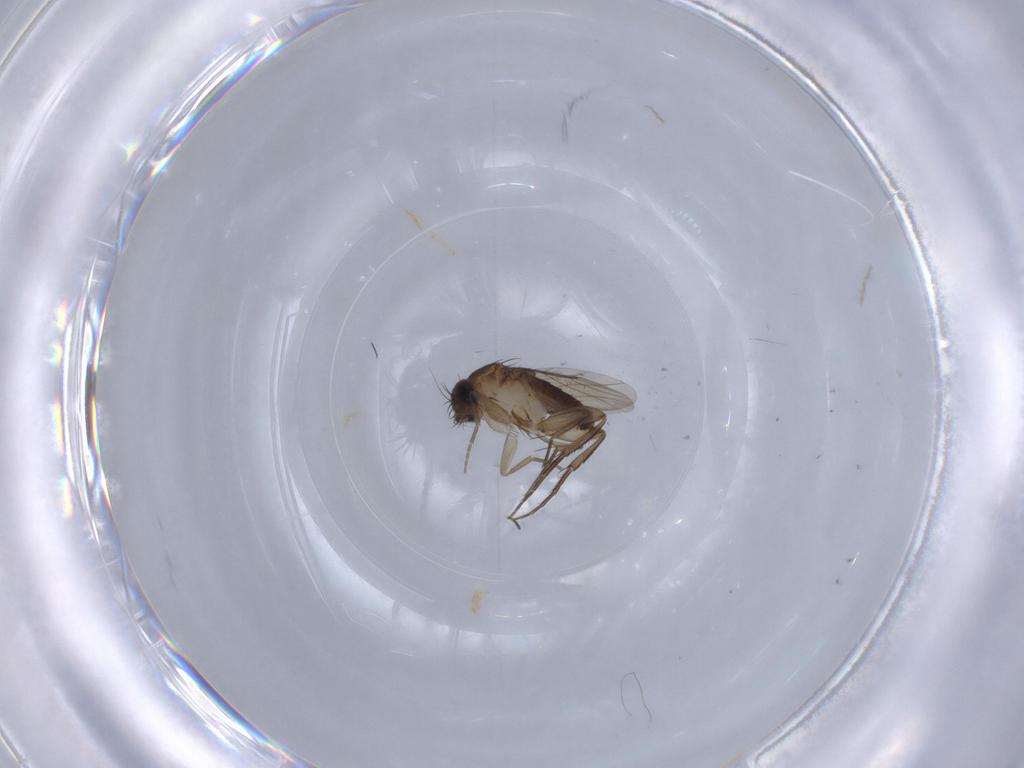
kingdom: Animalia
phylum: Arthropoda
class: Insecta
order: Diptera
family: Phoridae
